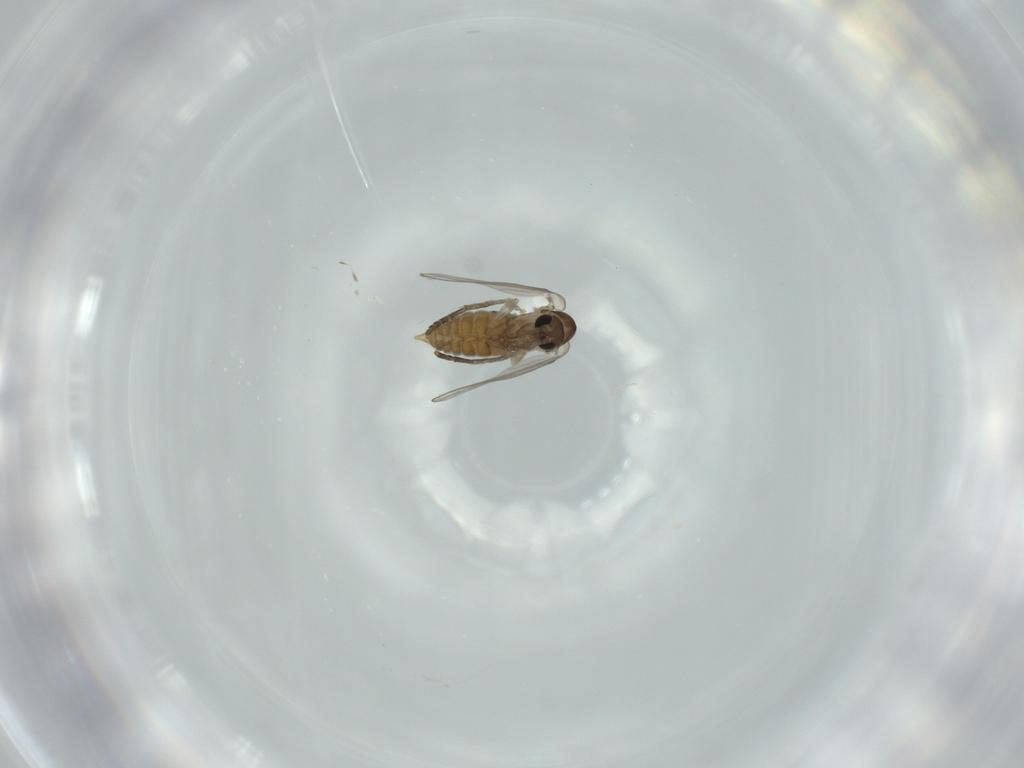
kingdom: Animalia
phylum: Arthropoda
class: Insecta
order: Diptera
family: Psychodidae
